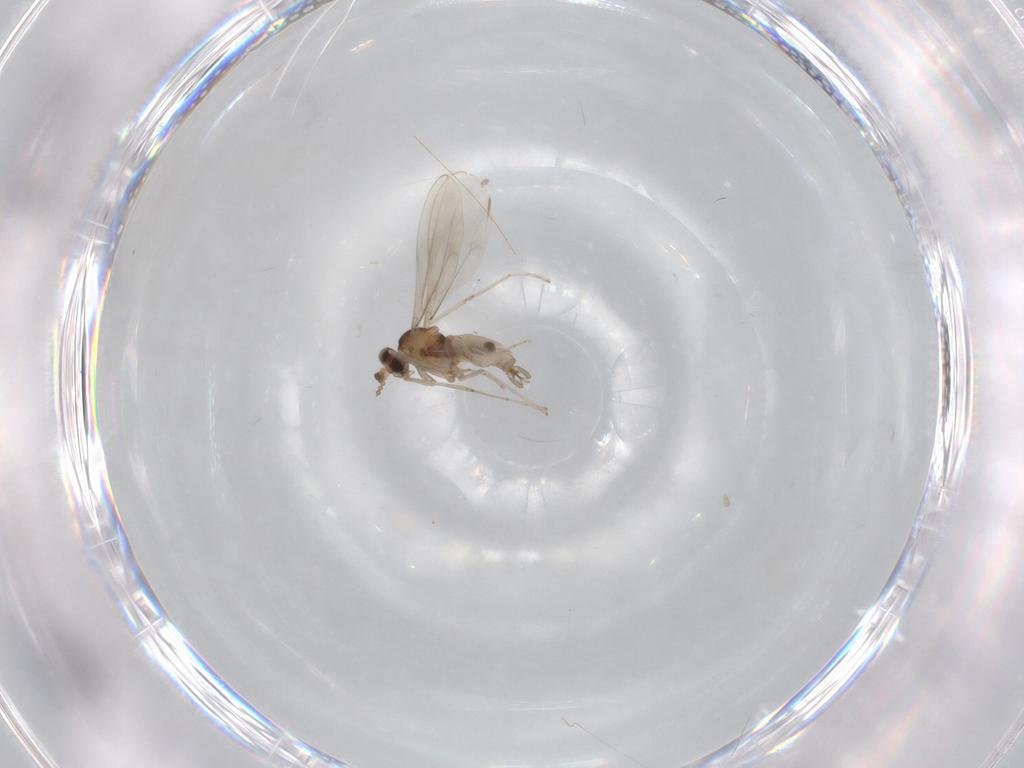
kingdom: Animalia
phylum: Arthropoda
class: Insecta
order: Diptera
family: Cecidomyiidae
